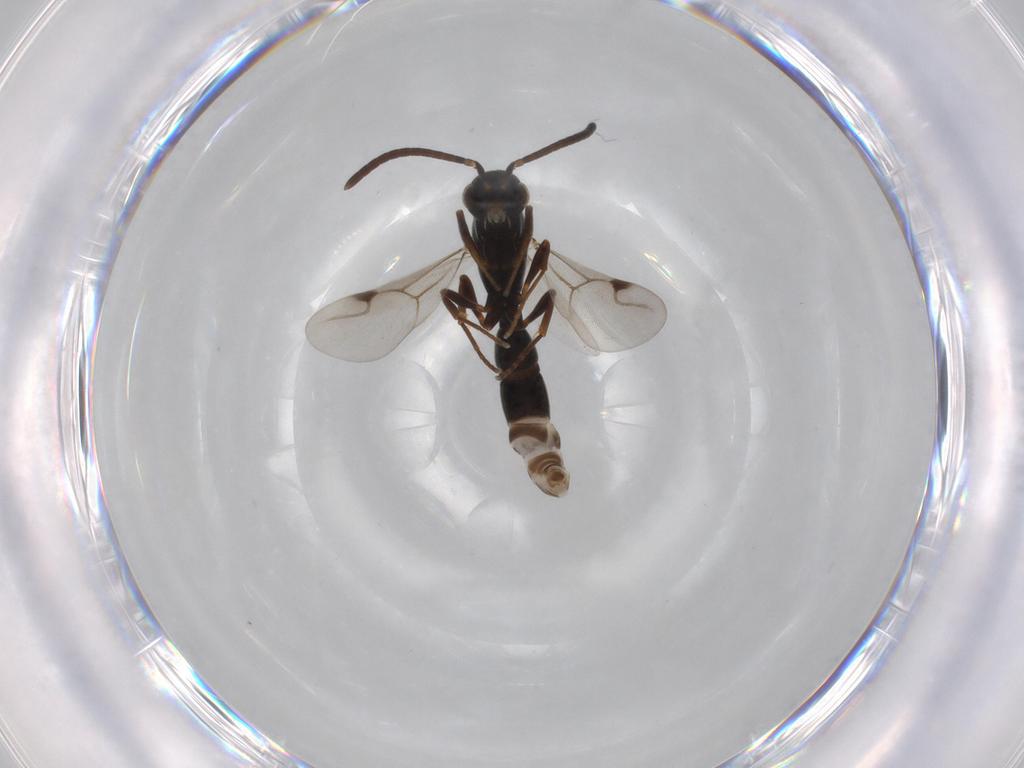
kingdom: Animalia
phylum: Arthropoda
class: Insecta
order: Hymenoptera
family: Formicidae
